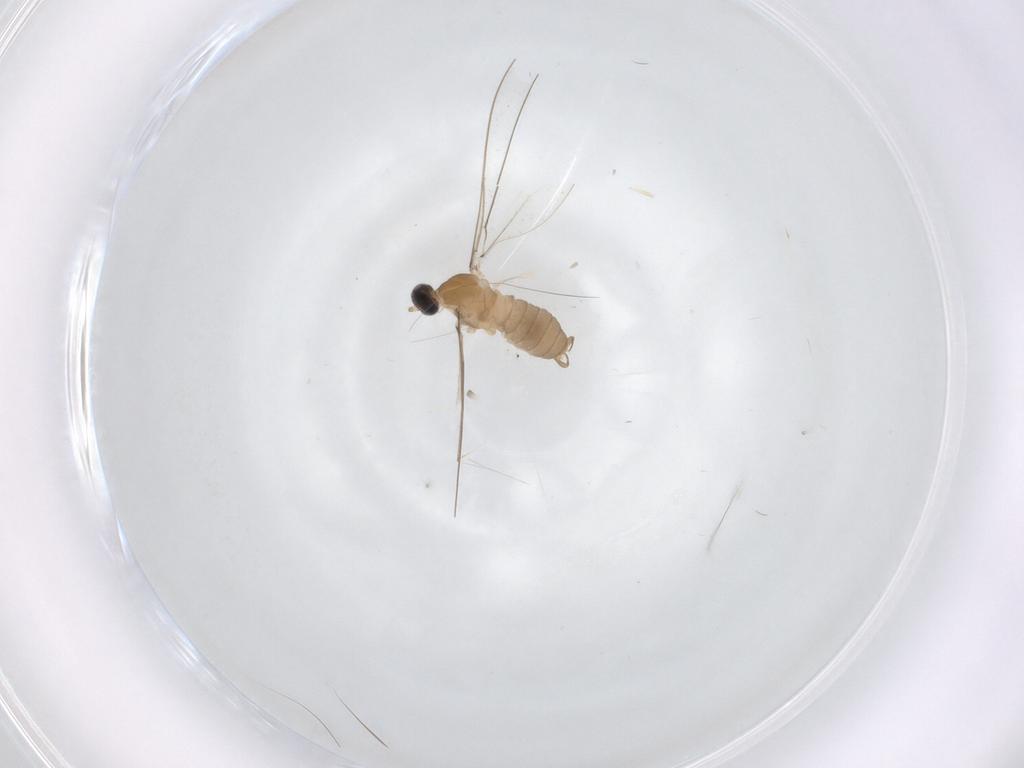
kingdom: Animalia
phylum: Arthropoda
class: Insecta
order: Diptera
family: Chironomidae
